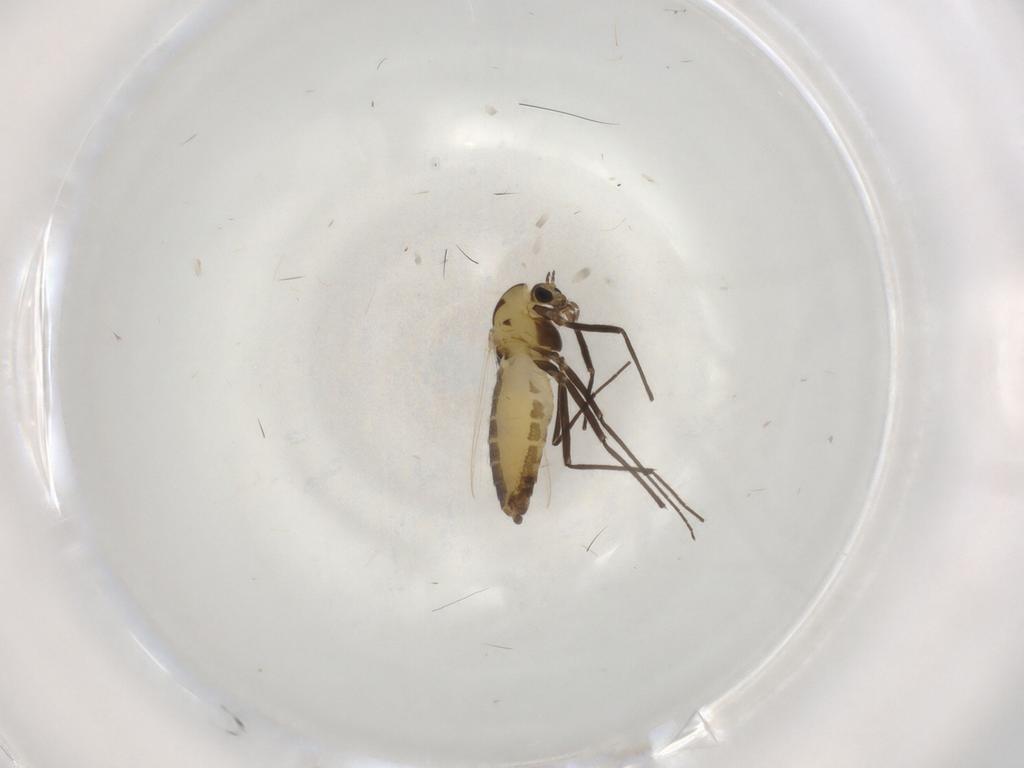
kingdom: Animalia
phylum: Arthropoda
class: Insecta
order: Diptera
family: Chironomidae
